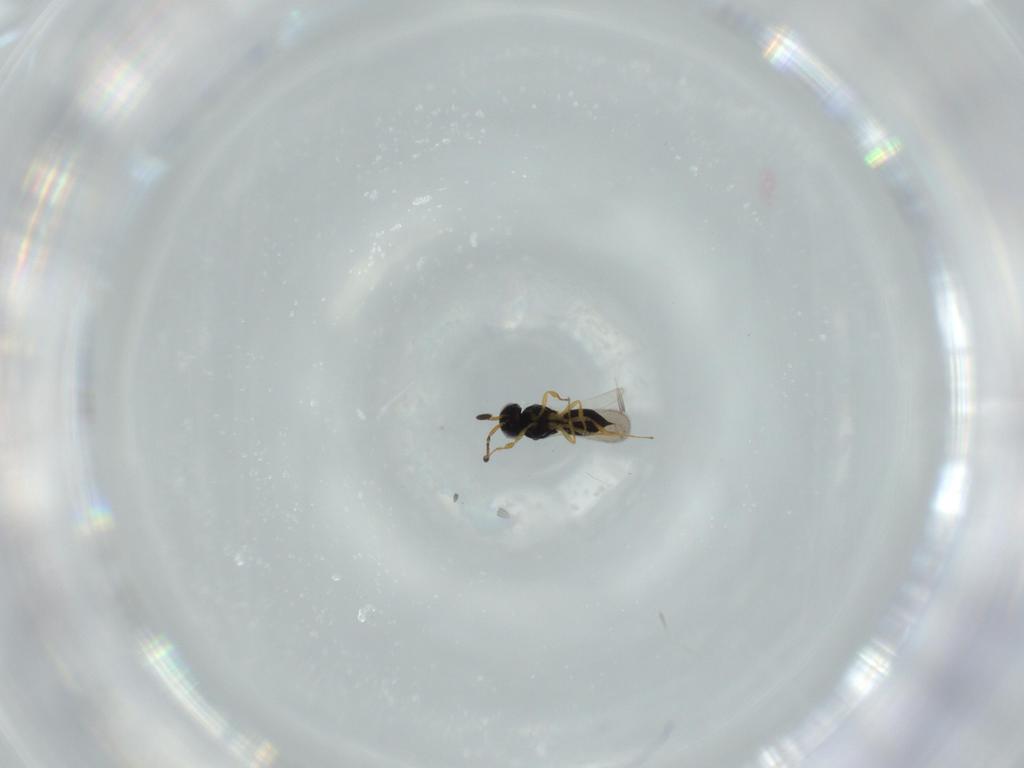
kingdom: Animalia
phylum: Arthropoda
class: Insecta
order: Hymenoptera
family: Scelionidae
